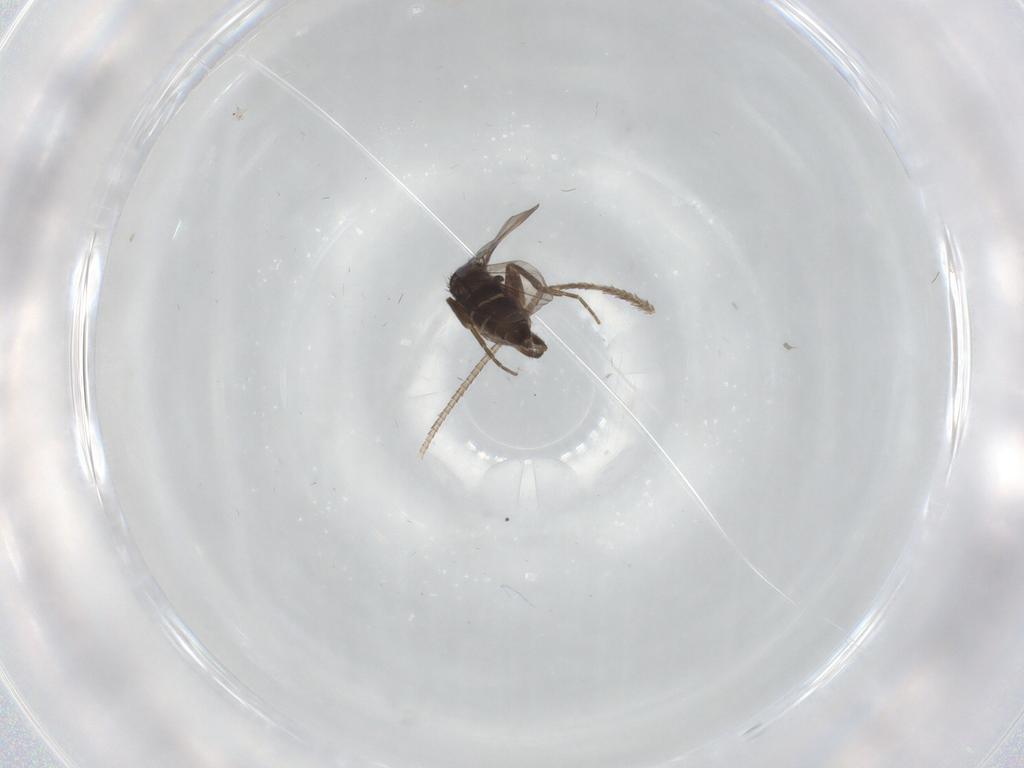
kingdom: Animalia
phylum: Arthropoda
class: Insecta
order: Diptera
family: Phoridae
